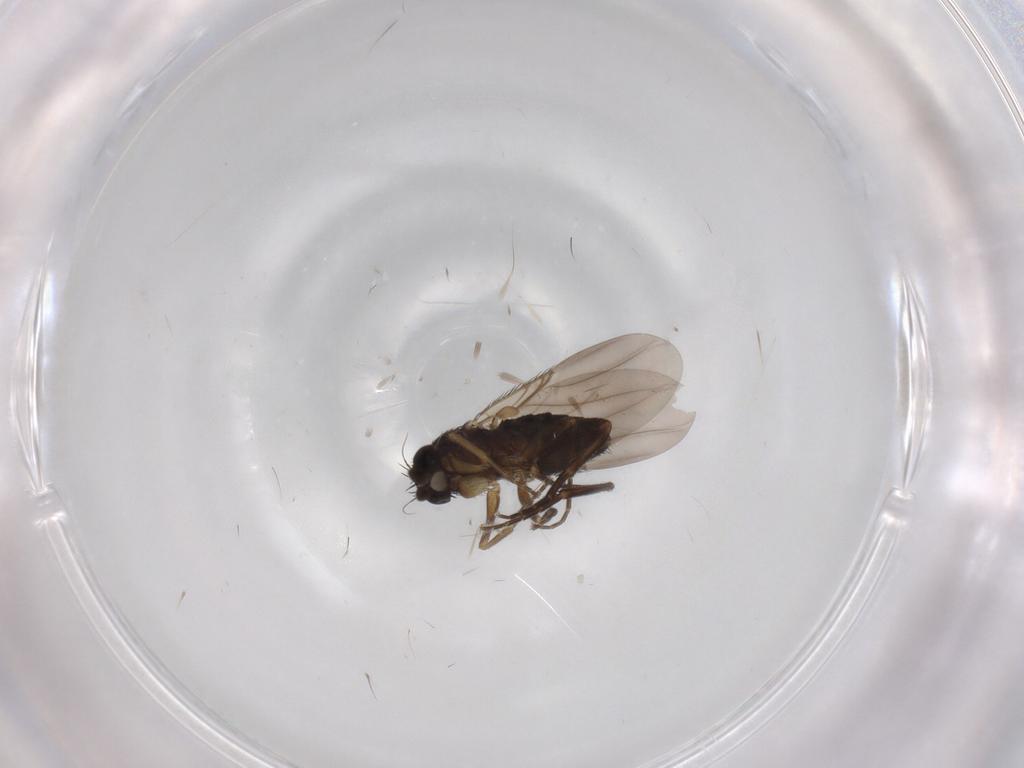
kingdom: Animalia
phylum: Arthropoda
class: Insecta
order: Diptera
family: Phoridae
